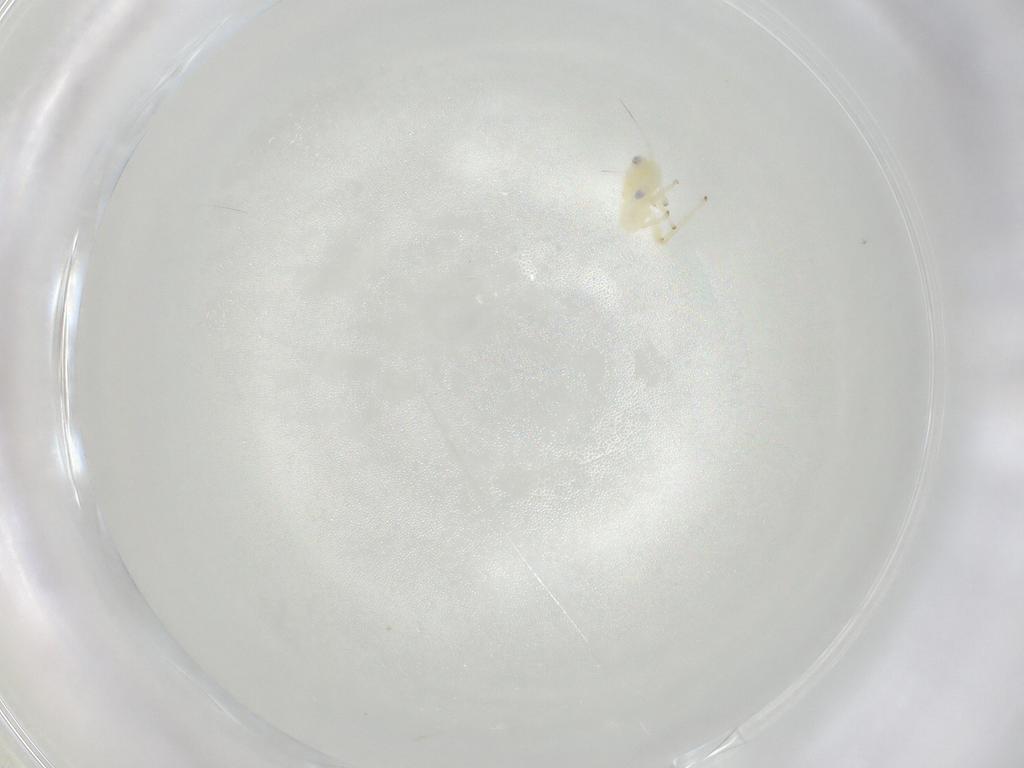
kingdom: Animalia
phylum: Arthropoda
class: Insecta
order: Hemiptera
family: Cicadellidae
